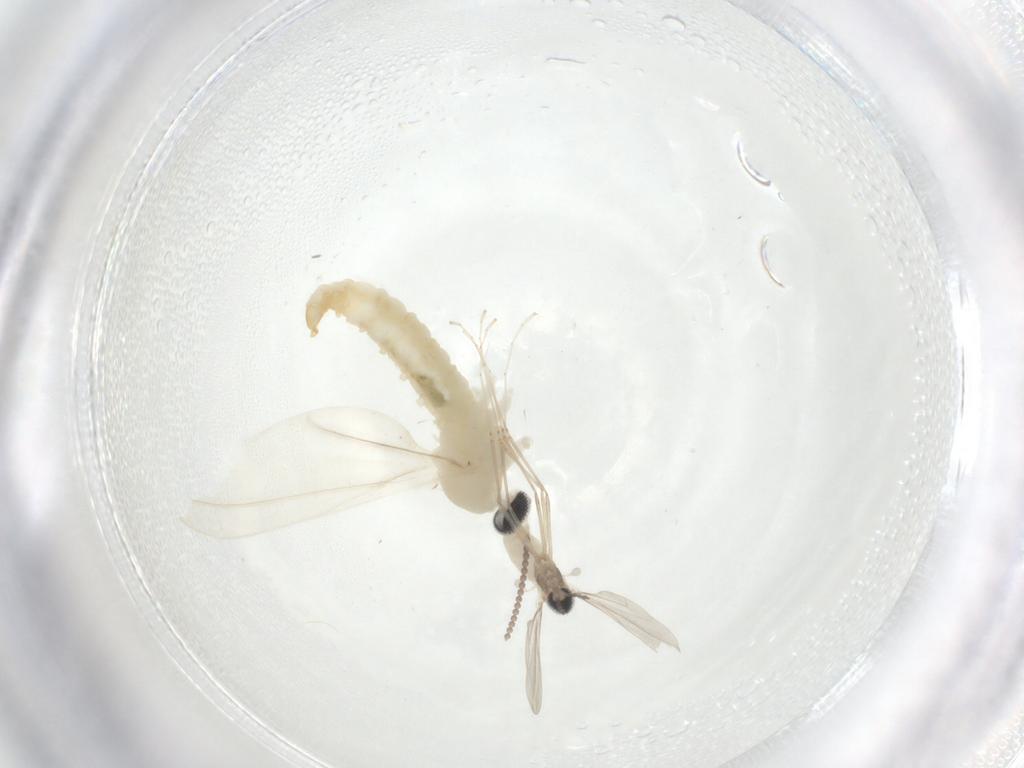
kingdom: Animalia
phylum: Arthropoda
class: Insecta
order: Diptera
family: Cecidomyiidae
